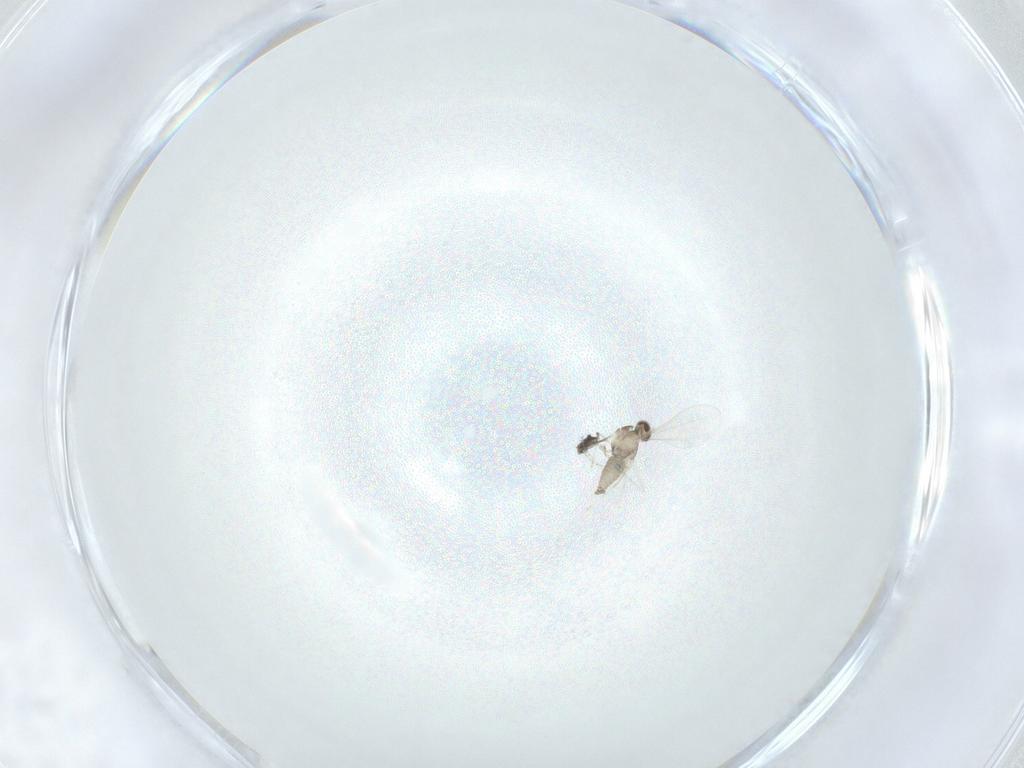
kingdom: Animalia
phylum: Arthropoda
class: Insecta
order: Diptera
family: Cecidomyiidae
